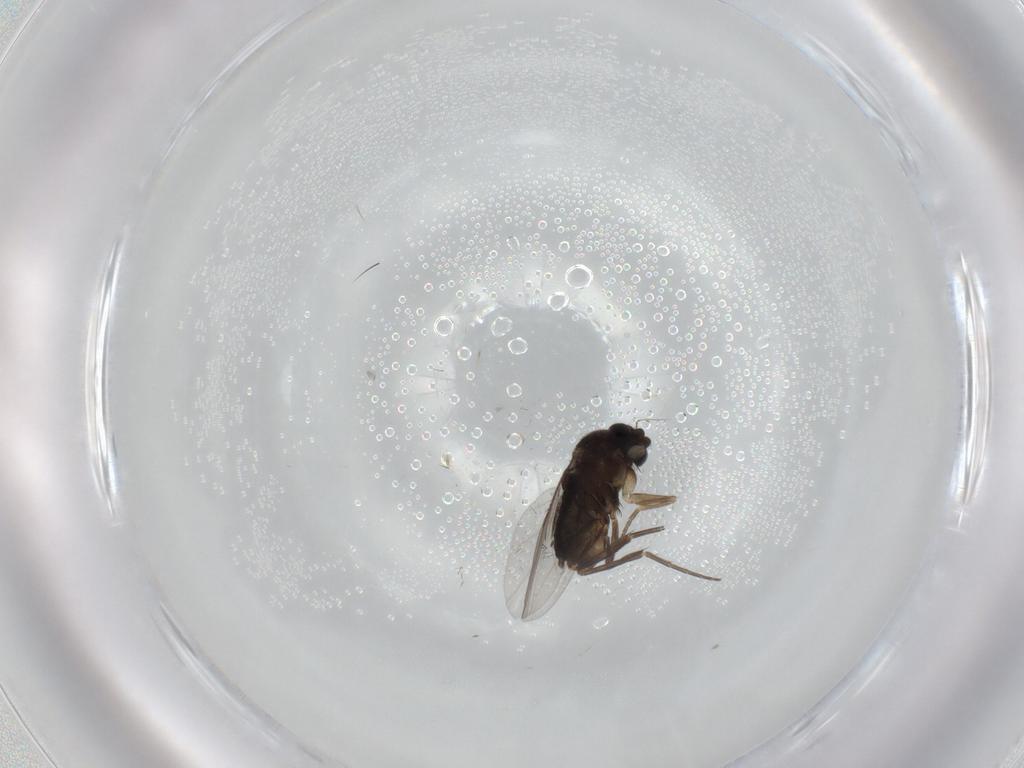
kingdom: Animalia
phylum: Arthropoda
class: Insecta
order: Diptera
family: Phoridae
